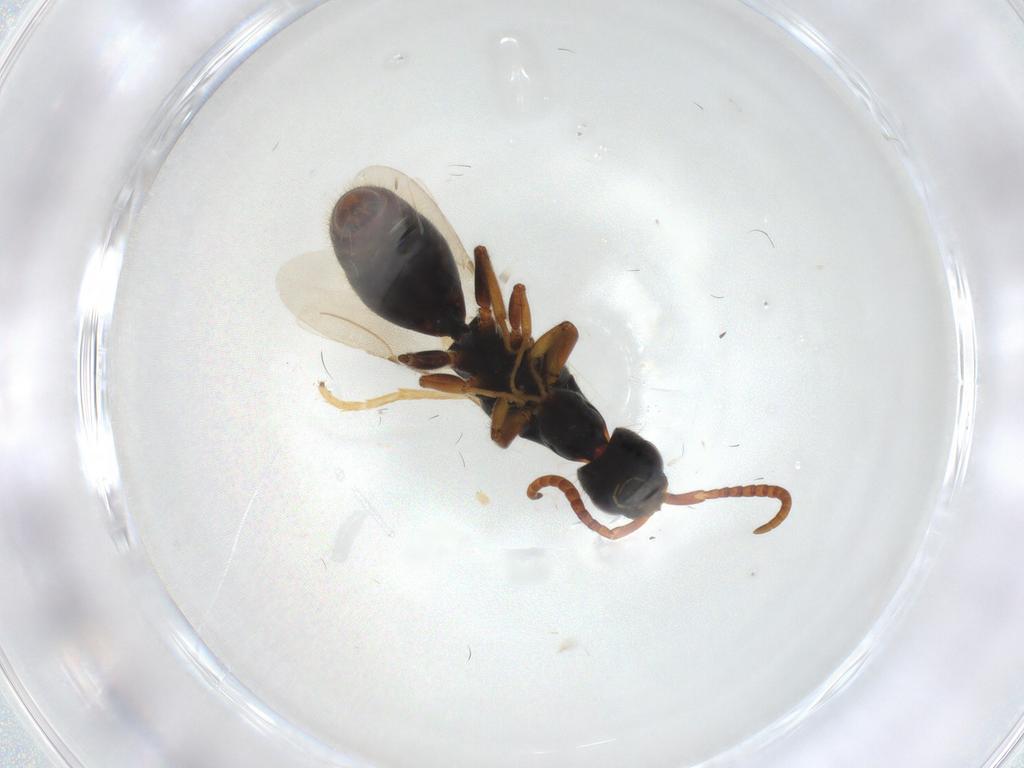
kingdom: Animalia
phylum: Arthropoda
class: Insecta
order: Hymenoptera
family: Bethylidae
